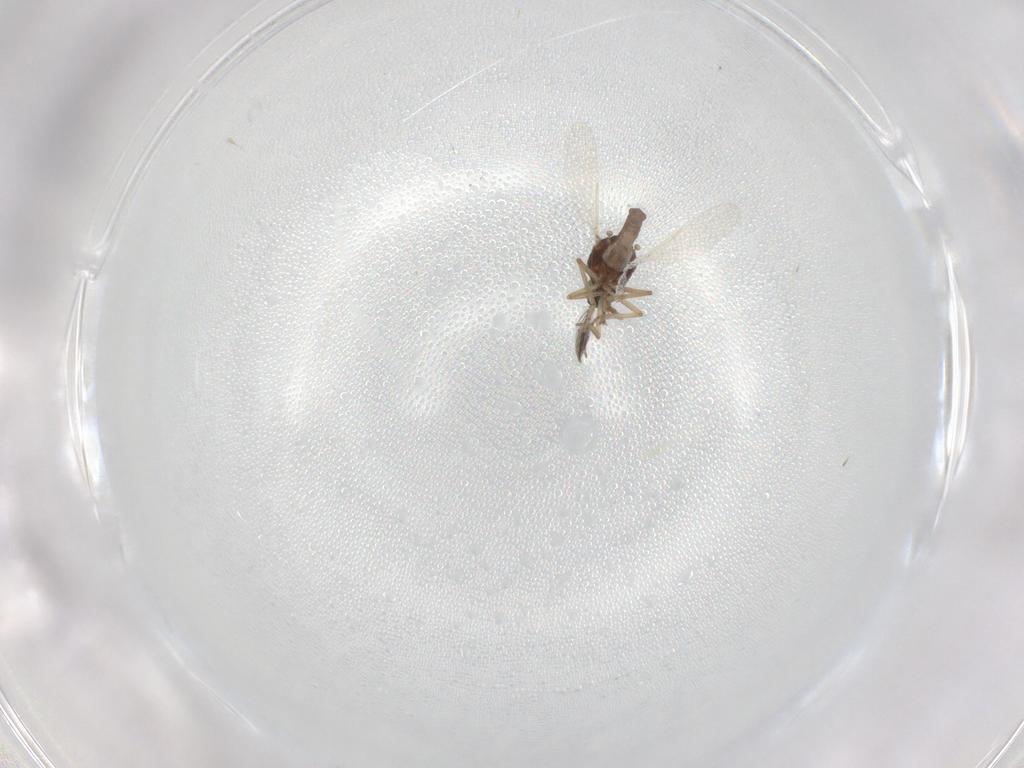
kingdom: Animalia
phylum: Arthropoda
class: Insecta
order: Diptera
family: Ceratopogonidae
